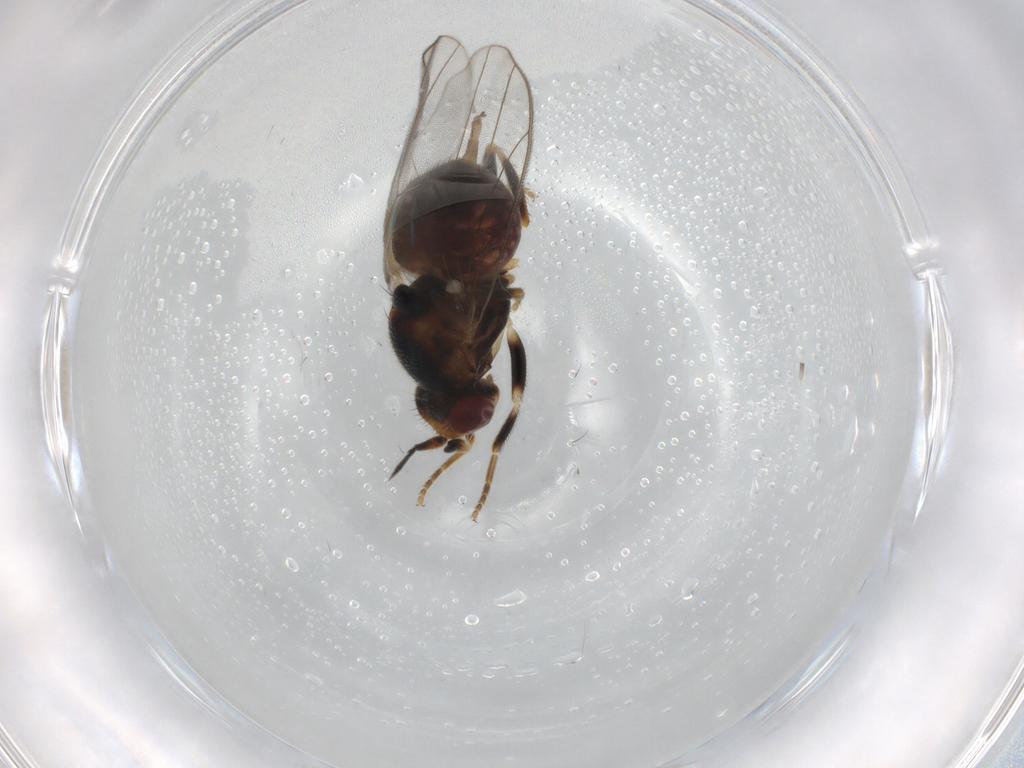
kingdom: Animalia
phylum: Arthropoda
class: Insecta
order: Diptera
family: Chloropidae
